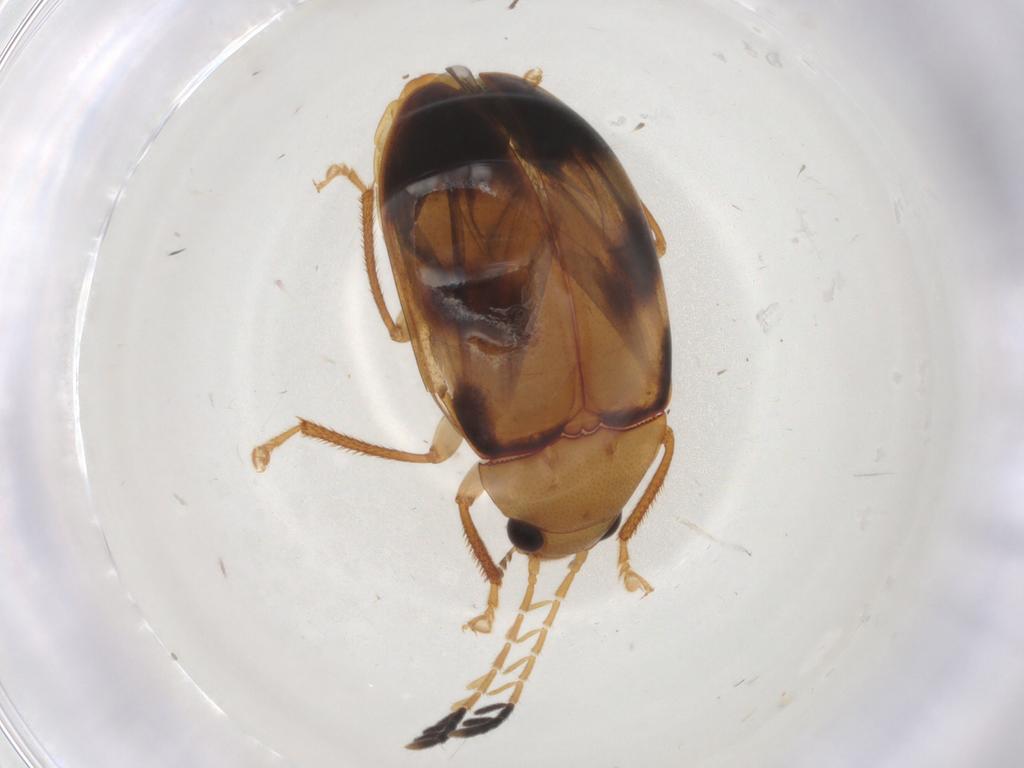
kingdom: Animalia
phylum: Arthropoda
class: Insecta
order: Coleoptera
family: Ptilodactylidae
